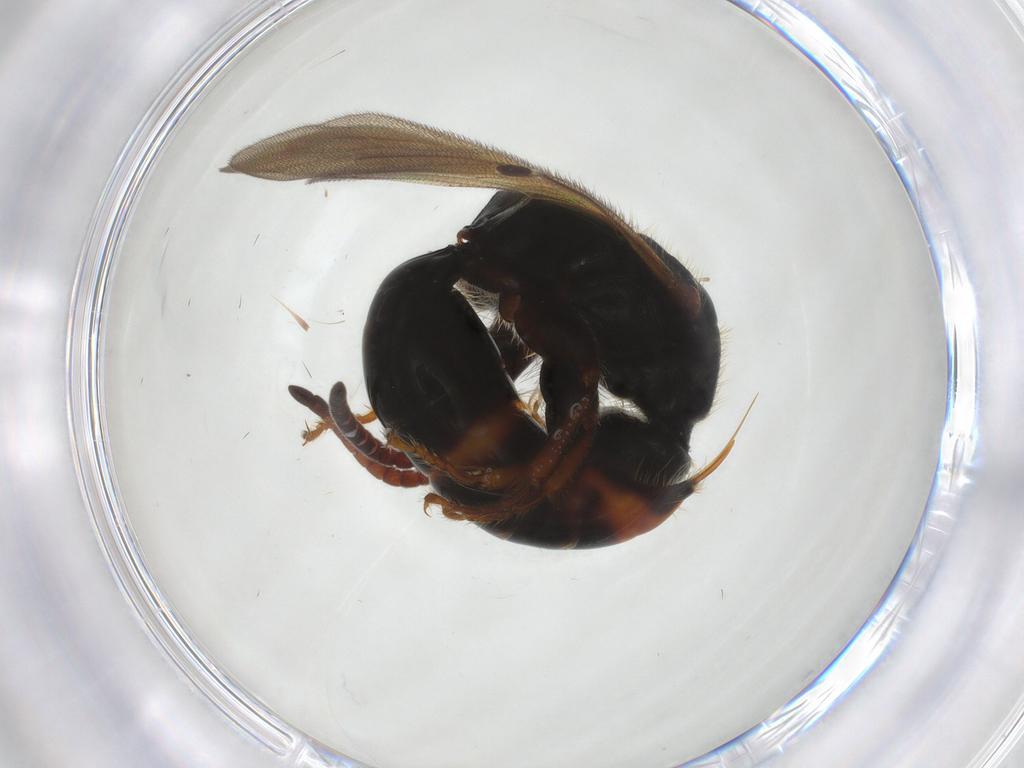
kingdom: Animalia
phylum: Arthropoda
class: Insecta
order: Hymenoptera
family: Bethylidae
